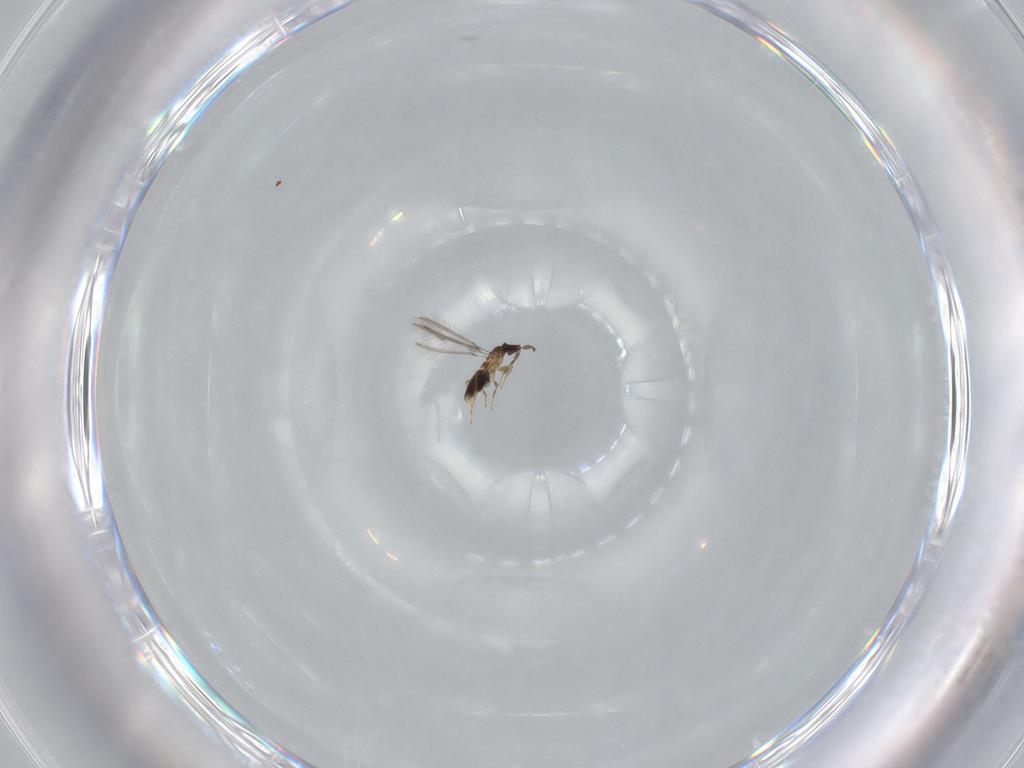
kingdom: Animalia
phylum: Arthropoda
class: Insecta
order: Hymenoptera
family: Mymaridae
